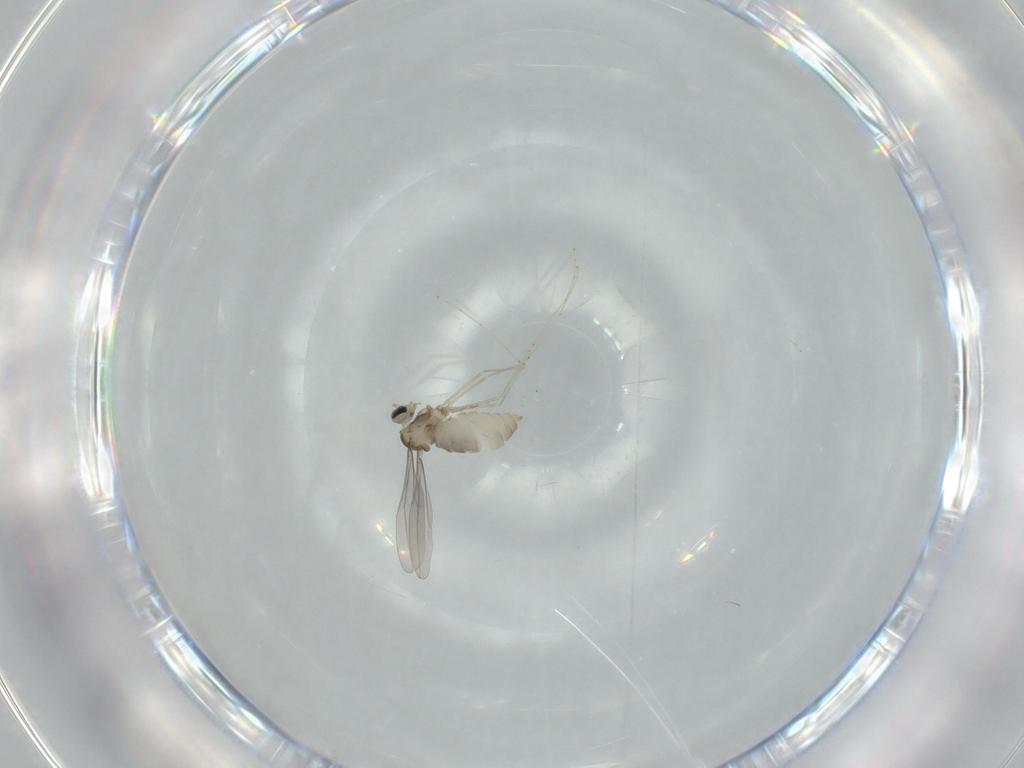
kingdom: Animalia
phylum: Arthropoda
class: Insecta
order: Diptera
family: Cecidomyiidae
